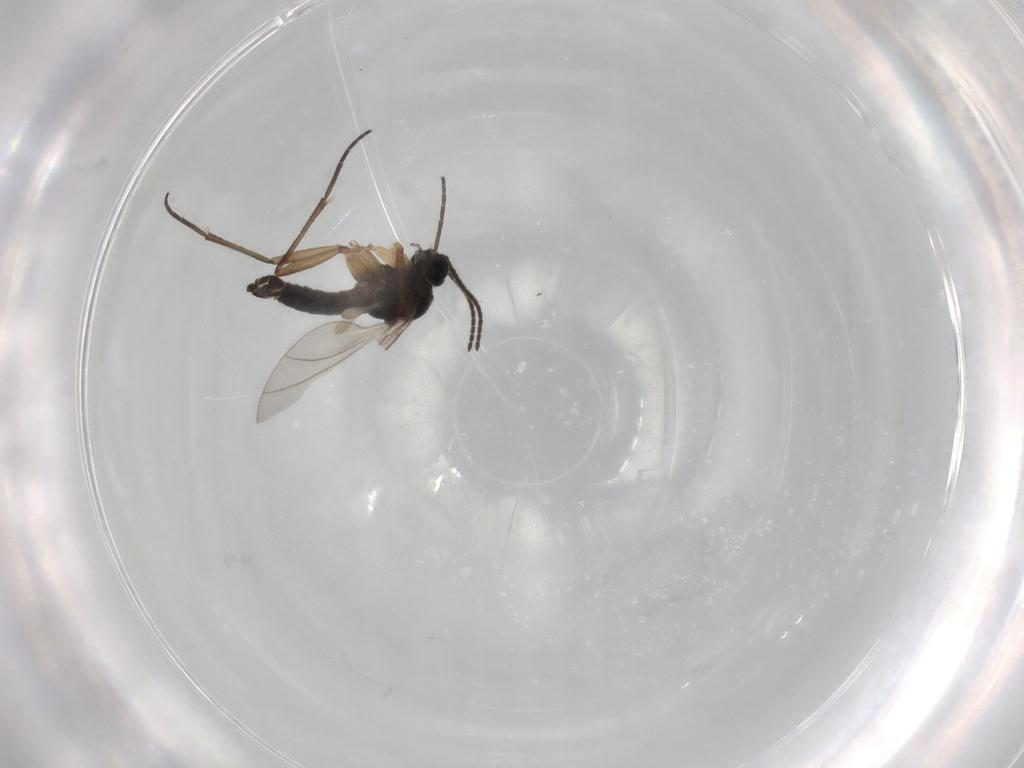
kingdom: Animalia
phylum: Arthropoda
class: Insecta
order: Diptera
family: Sciaridae
